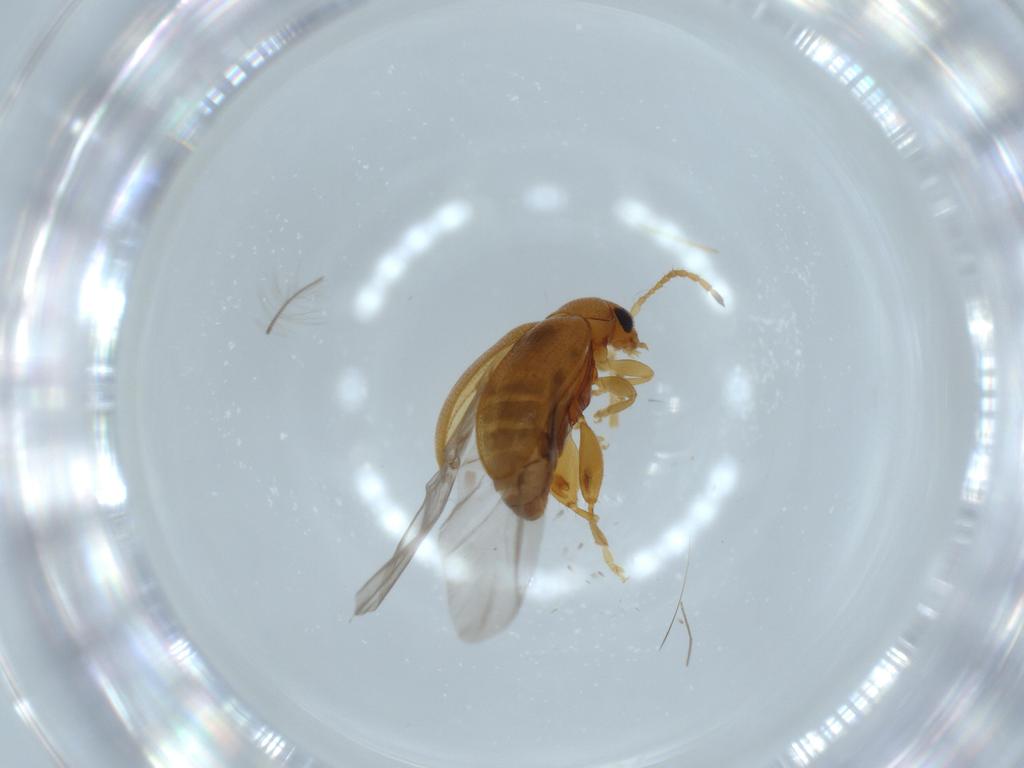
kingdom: Animalia
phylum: Arthropoda
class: Insecta
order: Coleoptera
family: Chrysomelidae
